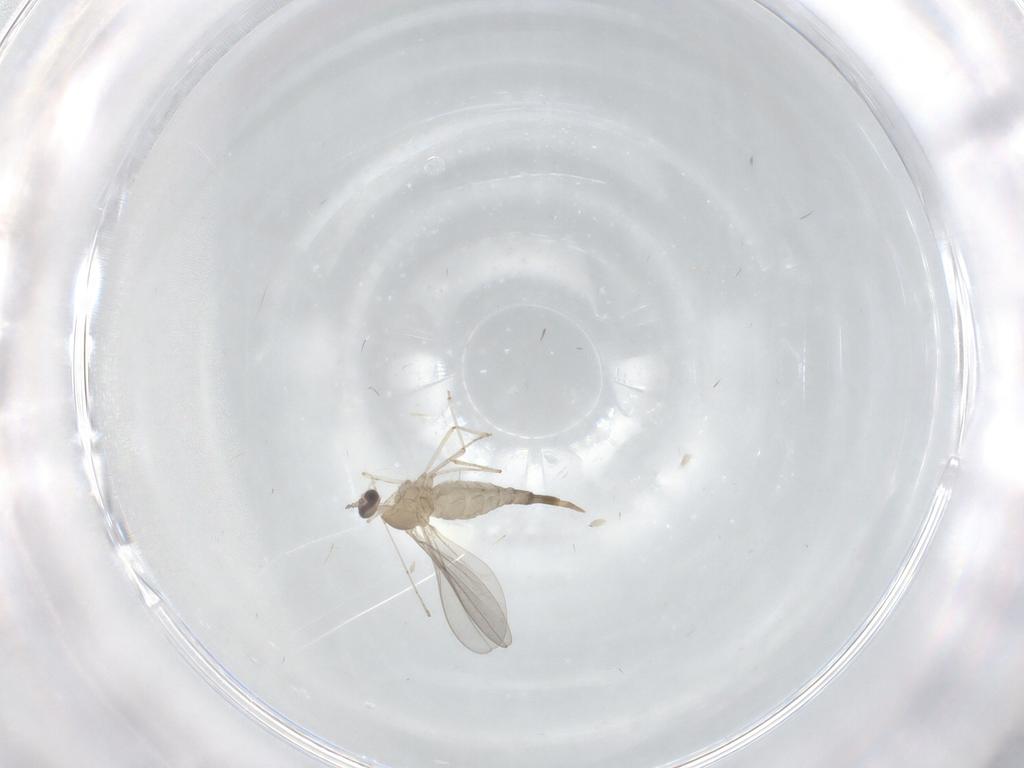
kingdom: Animalia
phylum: Arthropoda
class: Insecta
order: Diptera
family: Cecidomyiidae
